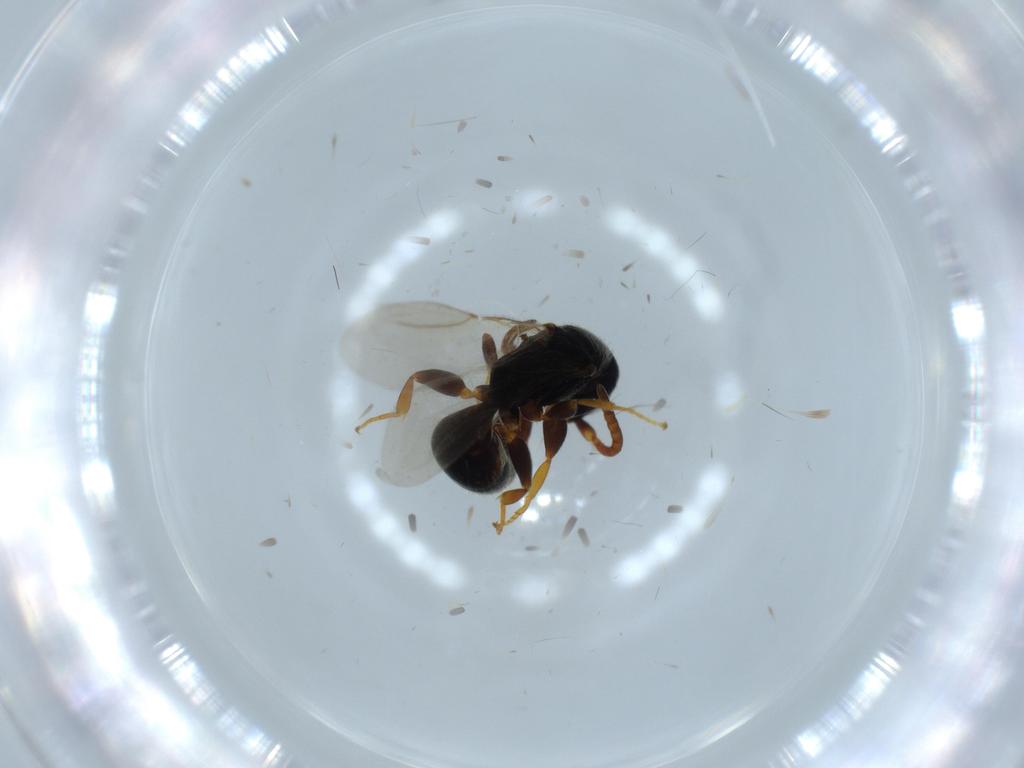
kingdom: Animalia
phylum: Arthropoda
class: Insecta
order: Hymenoptera
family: Bethylidae
